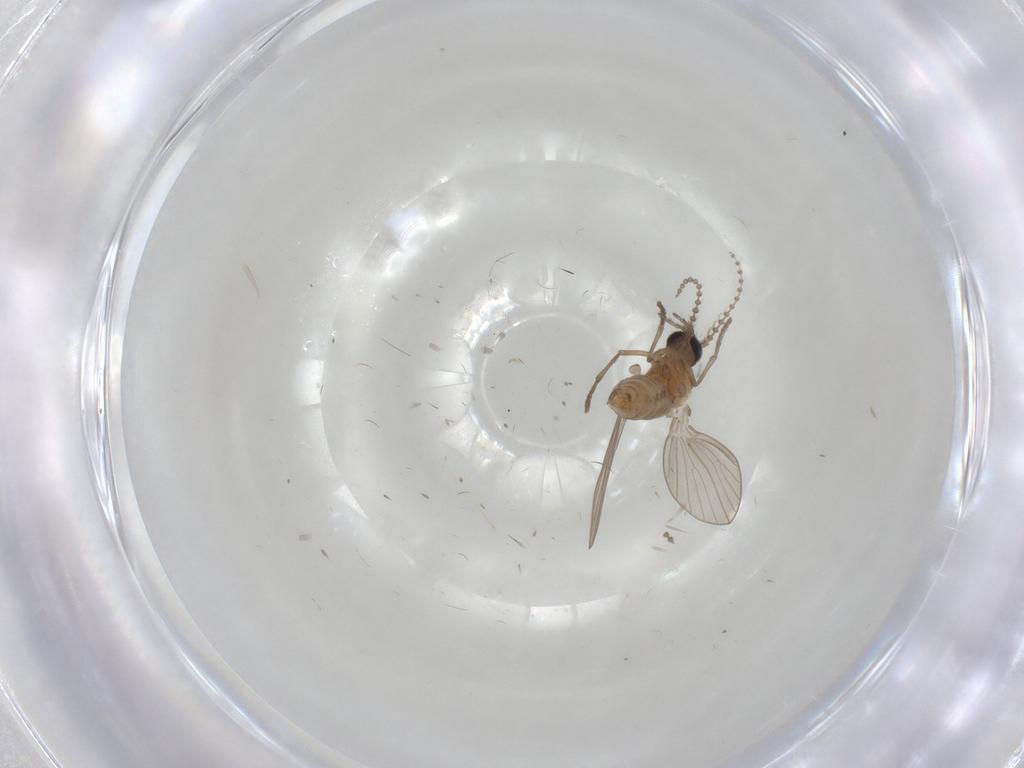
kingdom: Animalia
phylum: Arthropoda
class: Insecta
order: Diptera
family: Psychodidae
